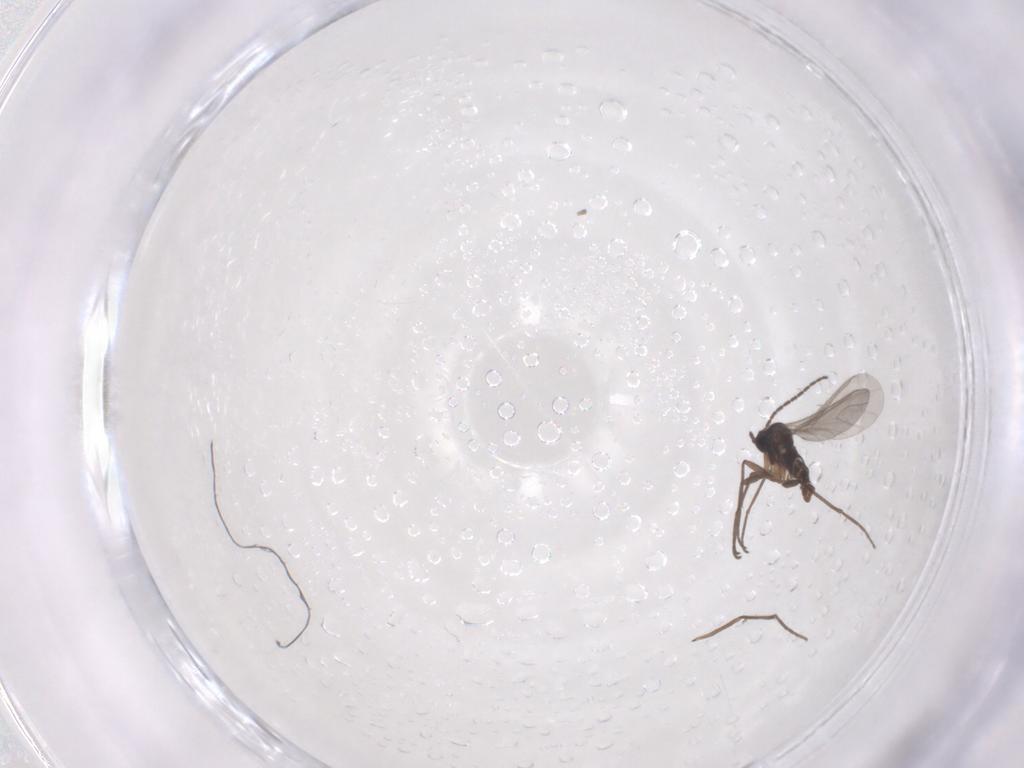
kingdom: Animalia
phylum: Arthropoda
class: Insecta
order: Diptera
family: Sciaridae
